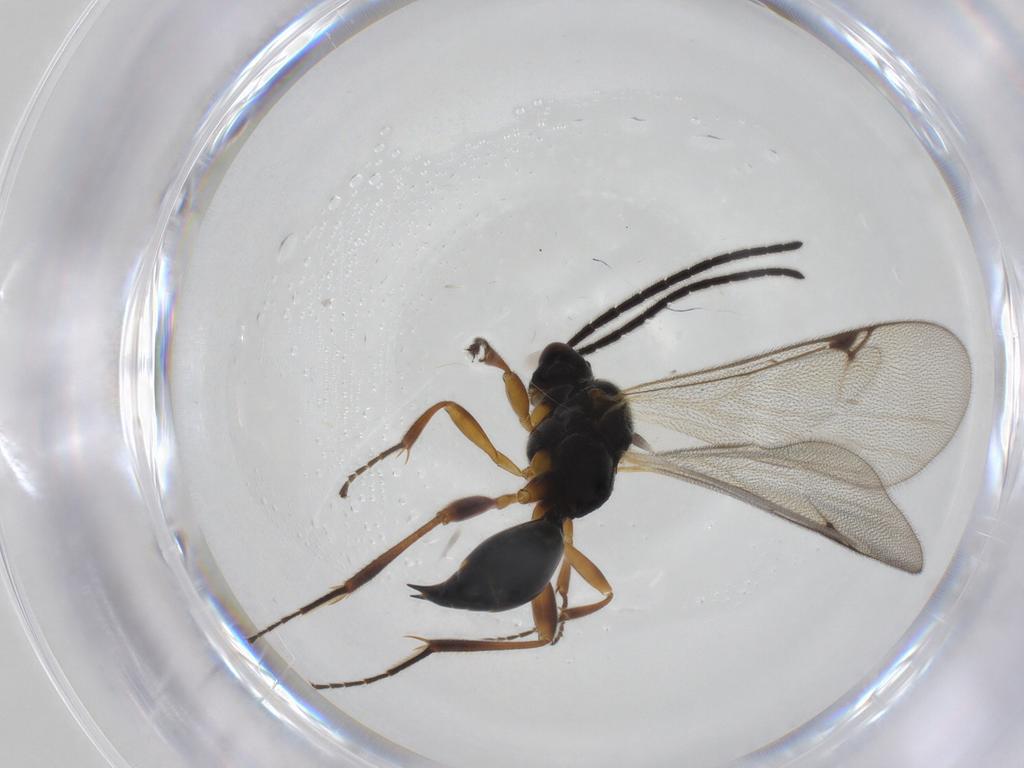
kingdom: Animalia
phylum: Arthropoda
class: Insecta
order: Hymenoptera
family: Proctotrupidae
